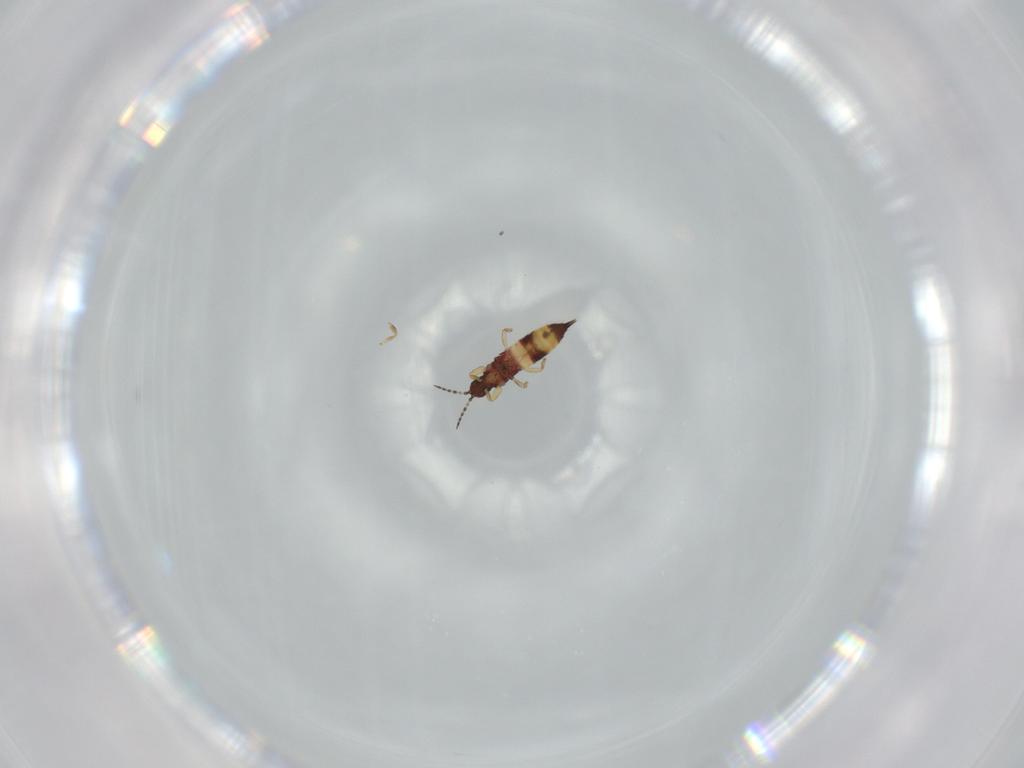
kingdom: Animalia
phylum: Arthropoda
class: Insecta
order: Thysanoptera
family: Phlaeothripidae
